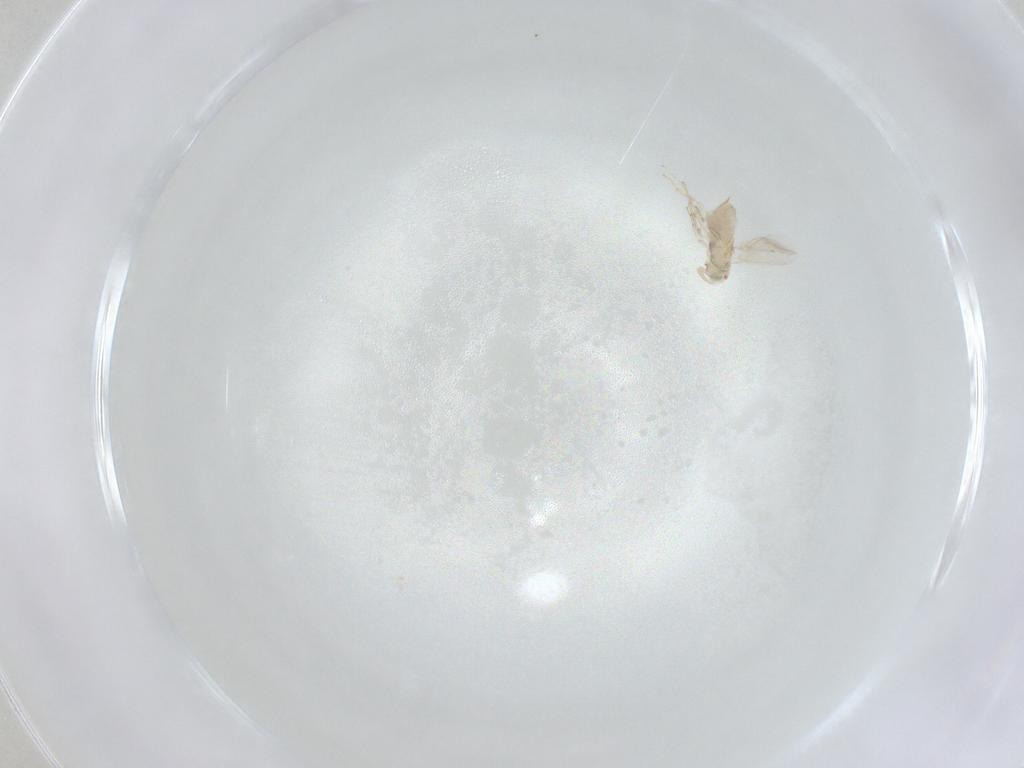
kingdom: Animalia
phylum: Arthropoda
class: Insecta
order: Hymenoptera
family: Aphelinidae
